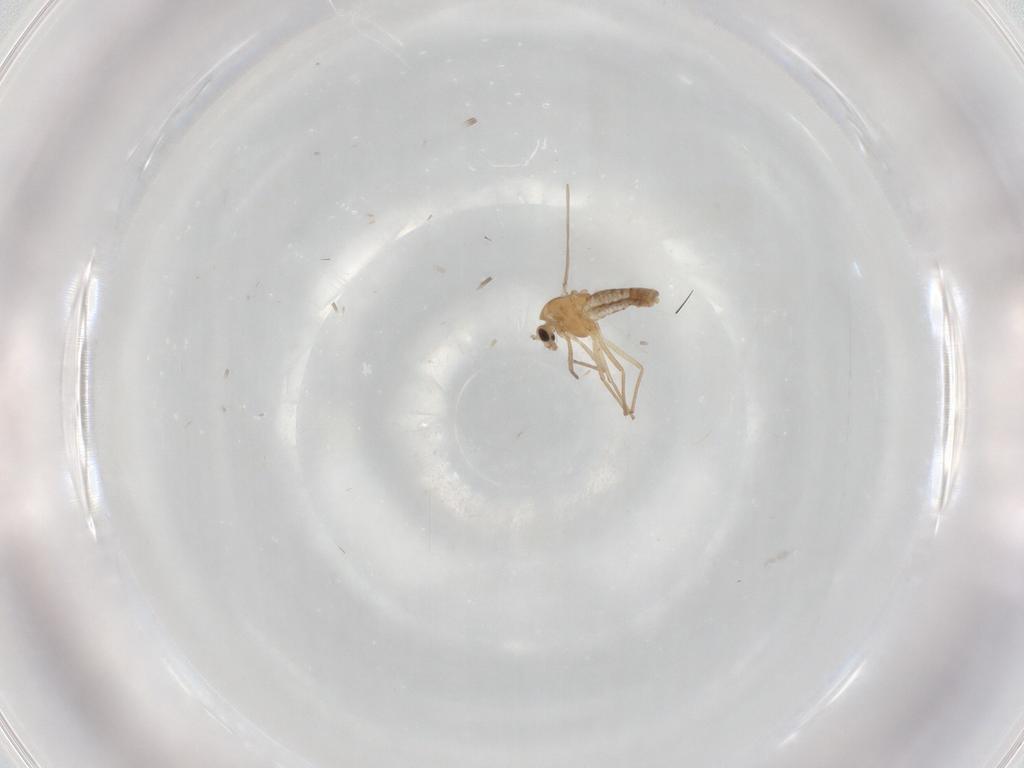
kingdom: Animalia
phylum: Arthropoda
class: Insecta
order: Diptera
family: Chironomidae
